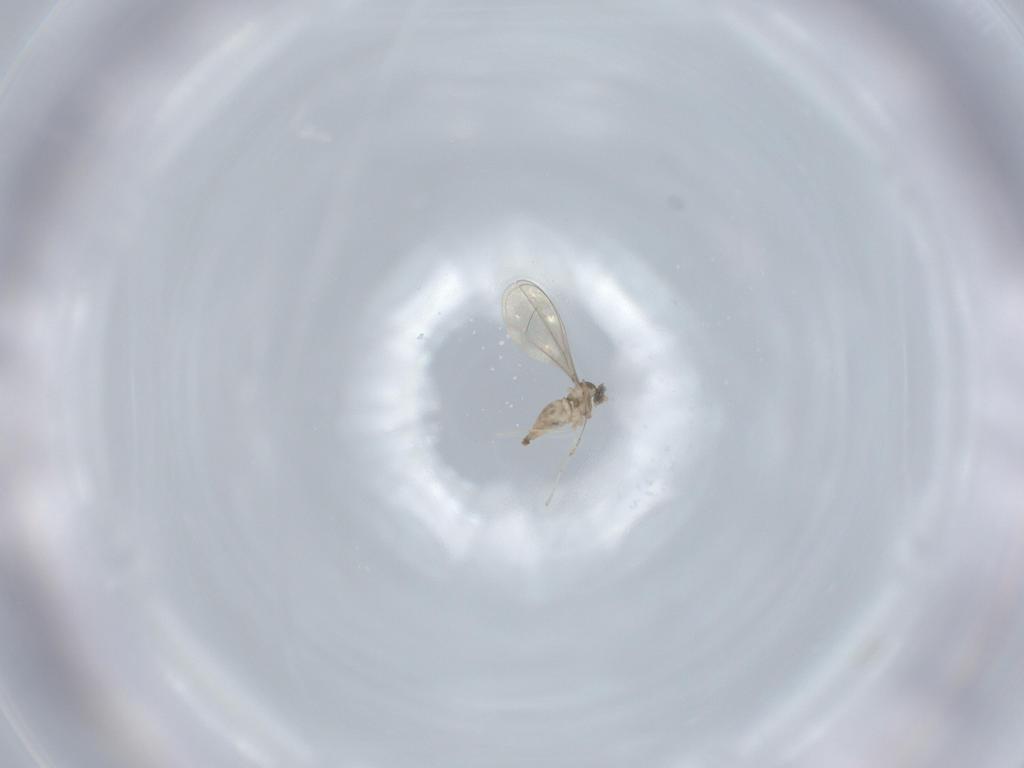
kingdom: Animalia
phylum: Arthropoda
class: Insecta
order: Diptera
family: Cecidomyiidae
